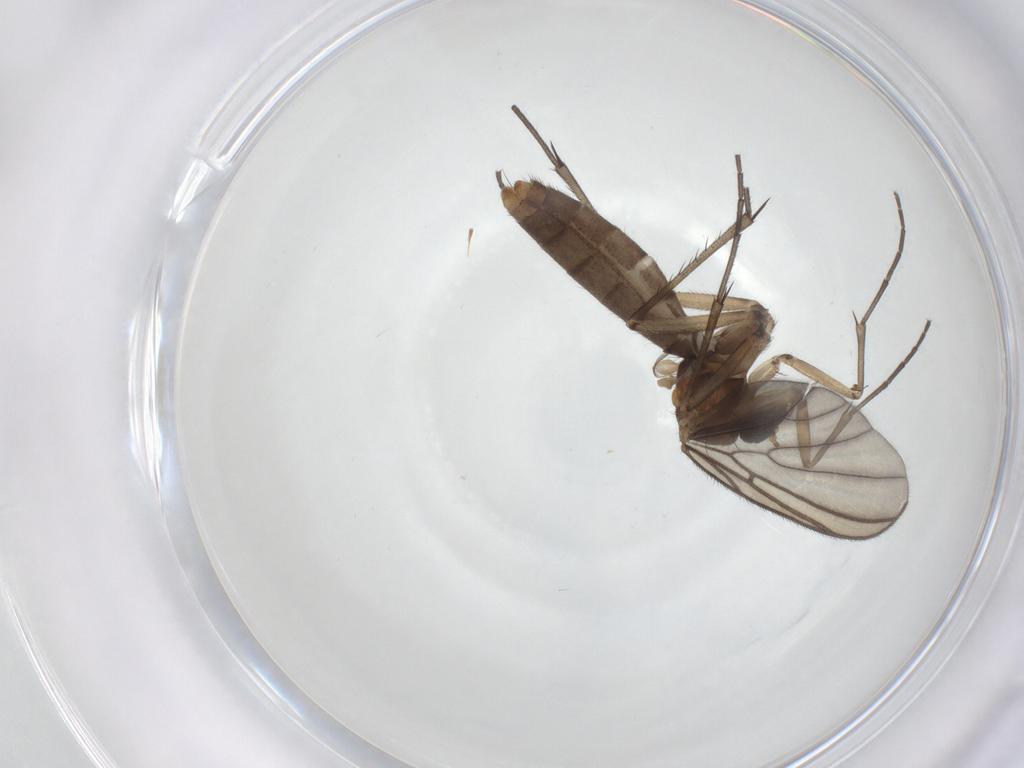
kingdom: Animalia
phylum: Arthropoda
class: Insecta
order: Diptera
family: Mycetophilidae
